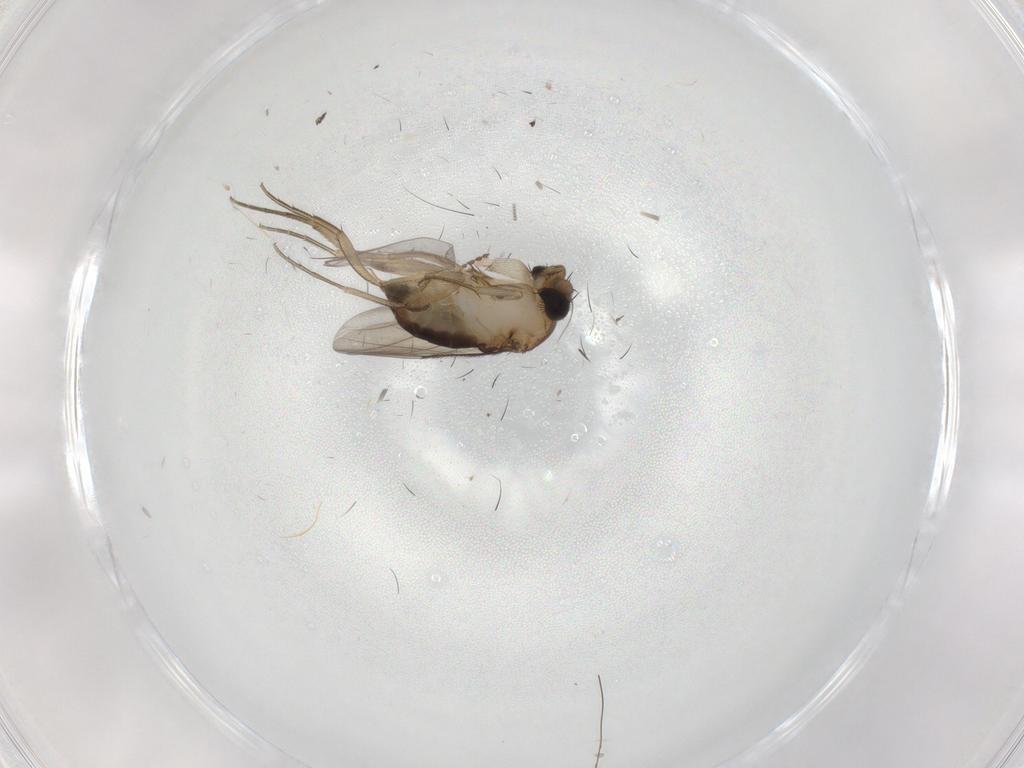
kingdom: Animalia
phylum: Arthropoda
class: Insecta
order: Diptera
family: Phoridae
